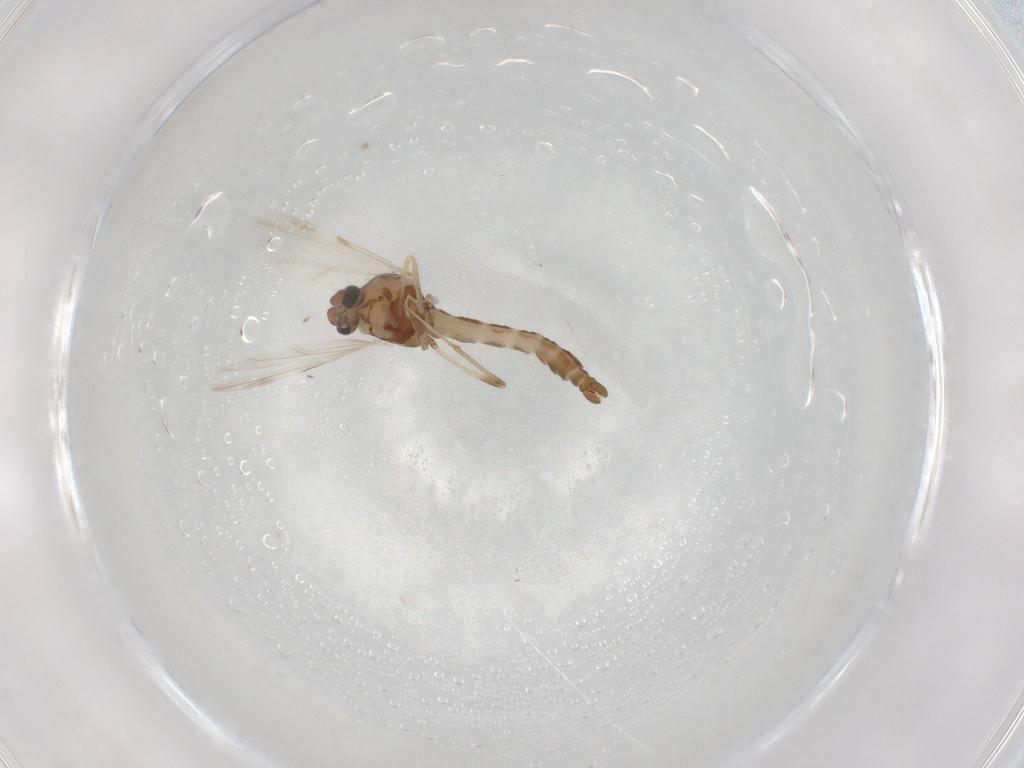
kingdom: Animalia
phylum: Arthropoda
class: Insecta
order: Diptera
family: Ceratopogonidae
